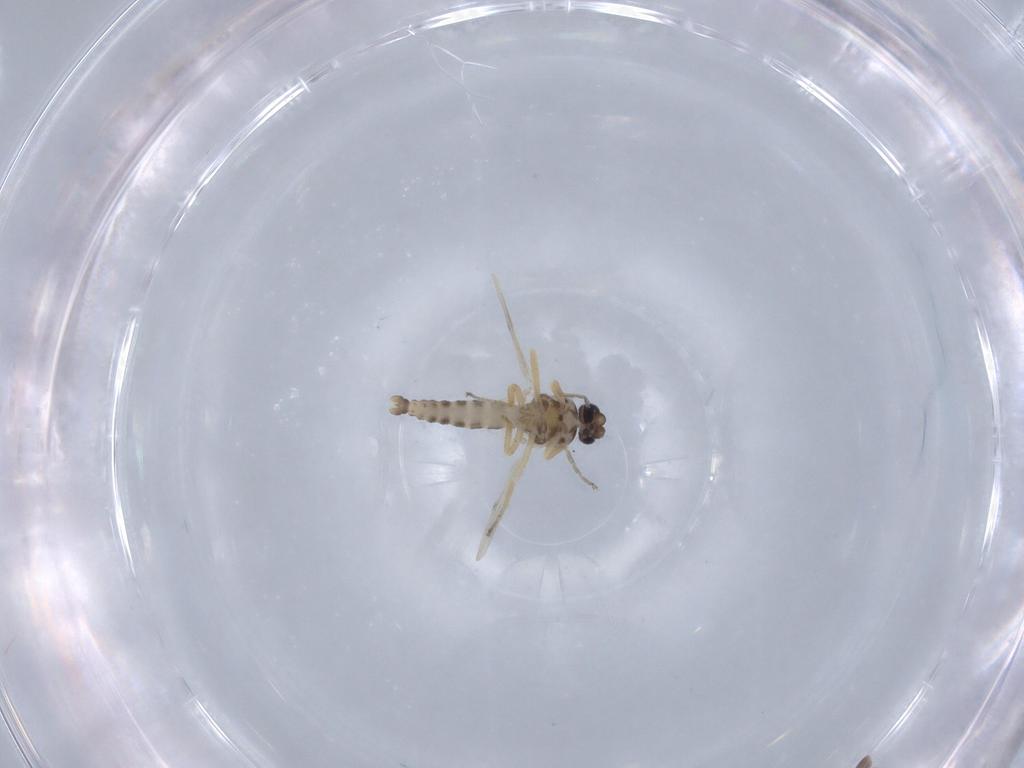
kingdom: Animalia
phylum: Arthropoda
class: Insecta
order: Diptera
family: Ceratopogonidae
